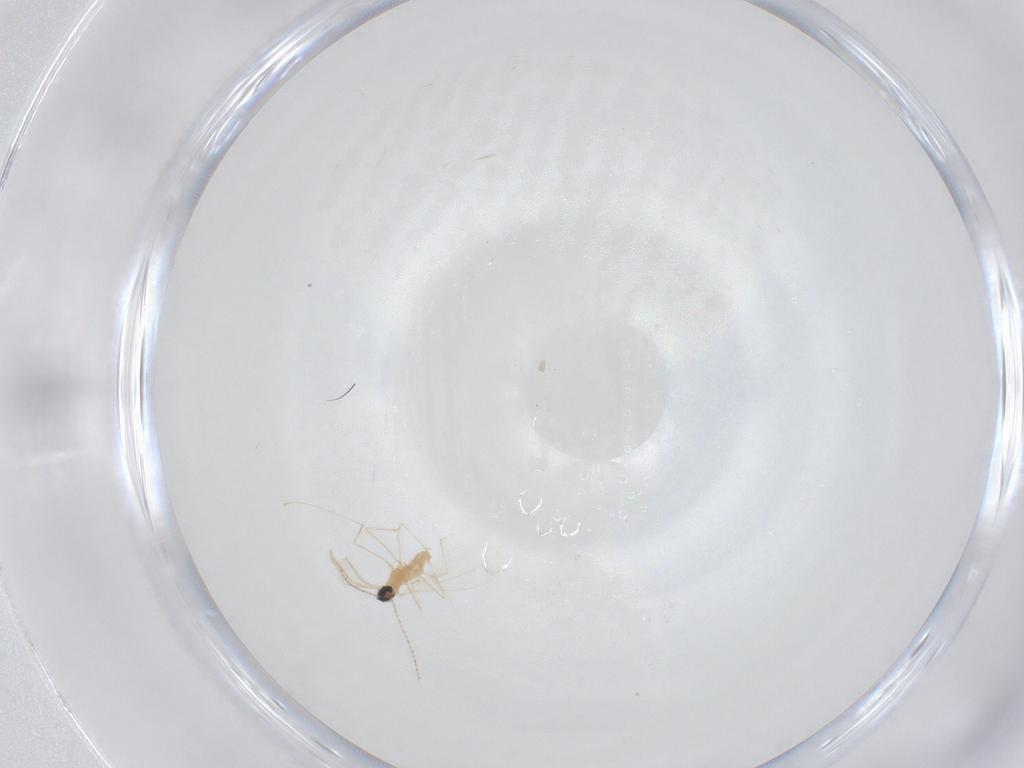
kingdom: Animalia
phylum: Arthropoda
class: Insecta
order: Diptera
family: Cecidomyiidae
